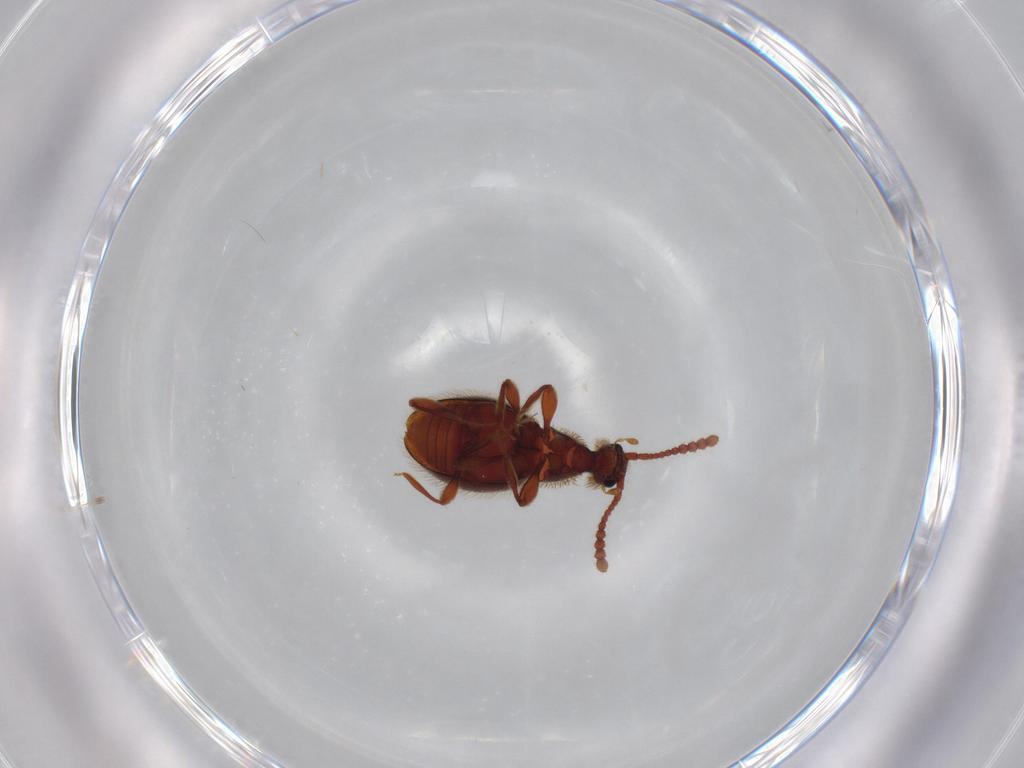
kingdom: Animalia
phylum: Arthropoda
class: Insecta
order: Coleoptera
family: Staphylinidae
